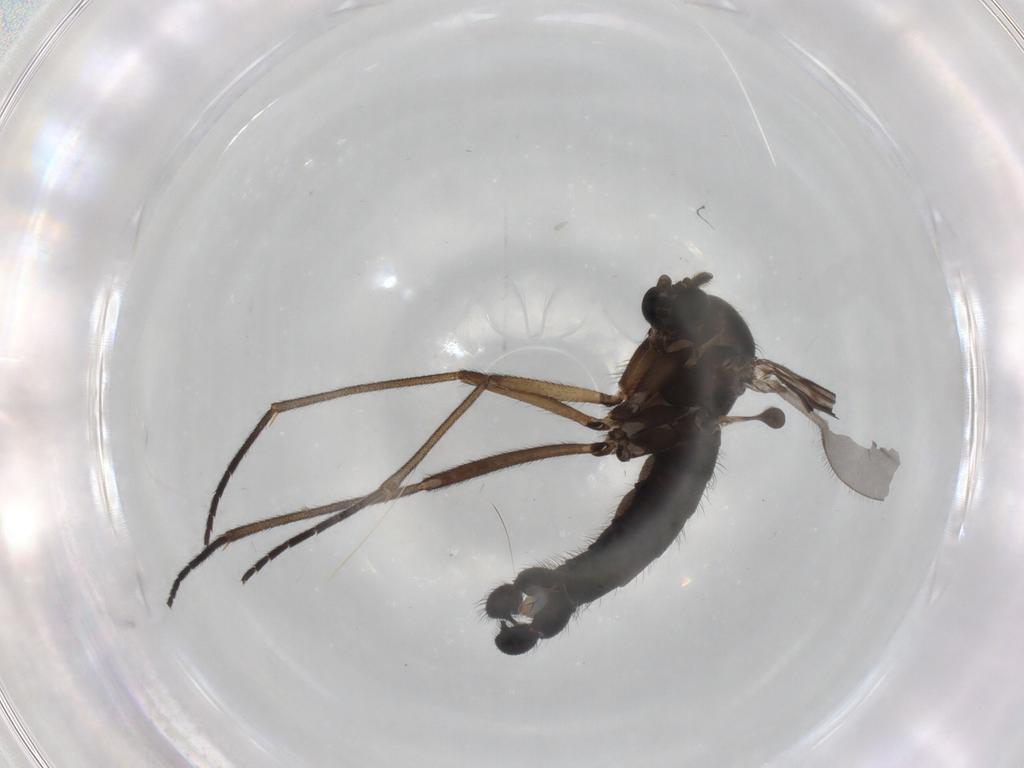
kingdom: Animalia
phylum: Arthropoda
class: Insecta
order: Diptera
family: Sciaridae
